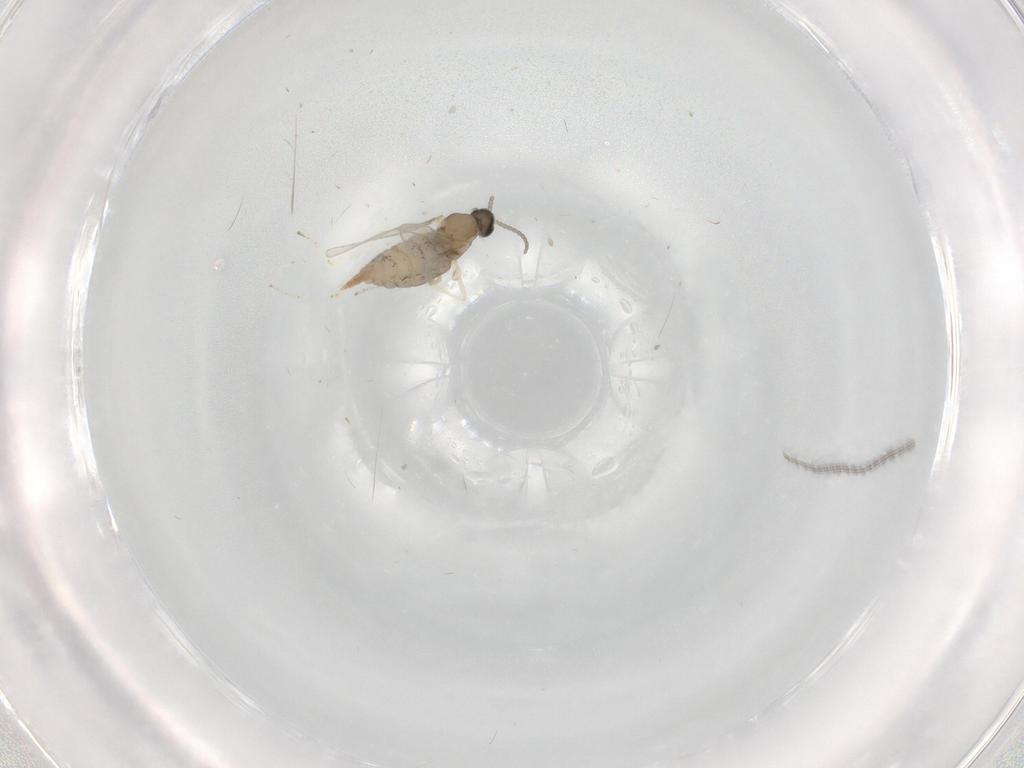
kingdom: Animalia
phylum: Arthropoda
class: Insecta
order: Diptera
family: Cecidomyiidae
